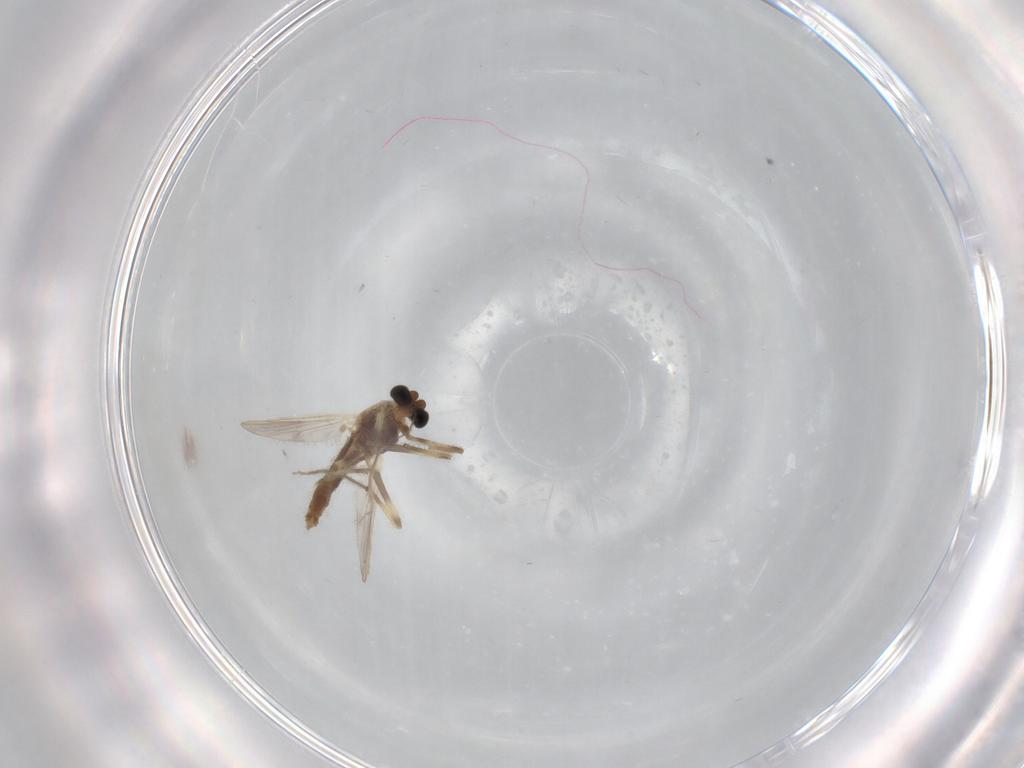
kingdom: Animalia
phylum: Arthropoda
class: Insecta
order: Diptera
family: Chironomidae
